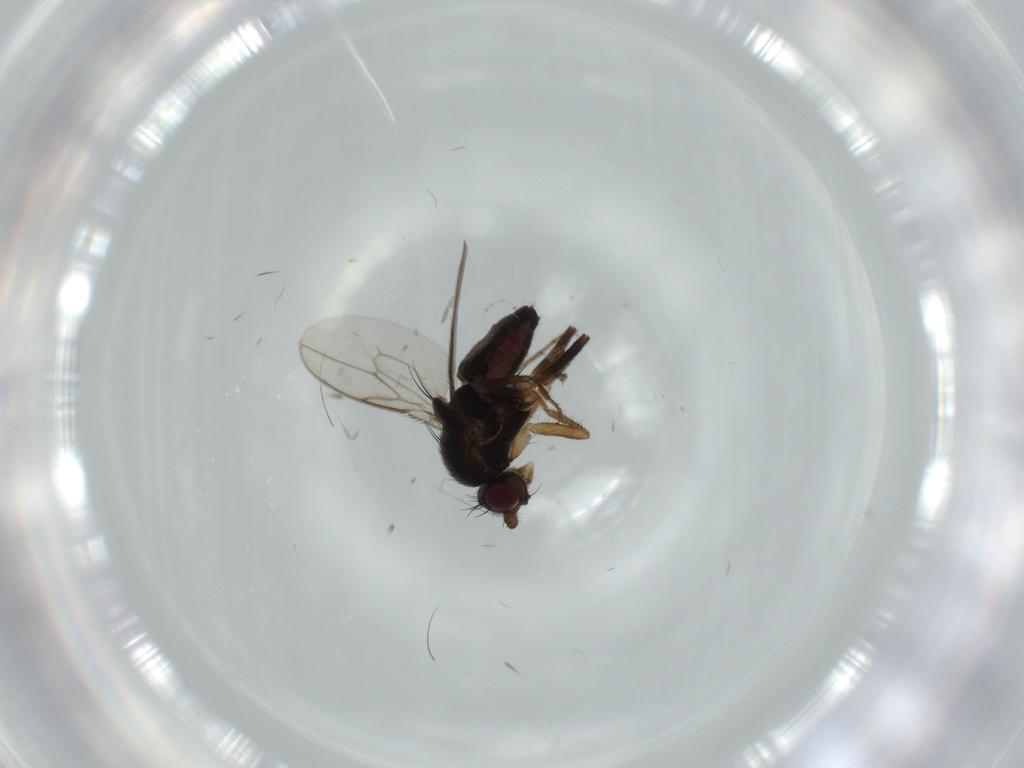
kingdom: Animalia
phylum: Arthropoda
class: Insecta
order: Diptera
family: Sphaeroceridae
